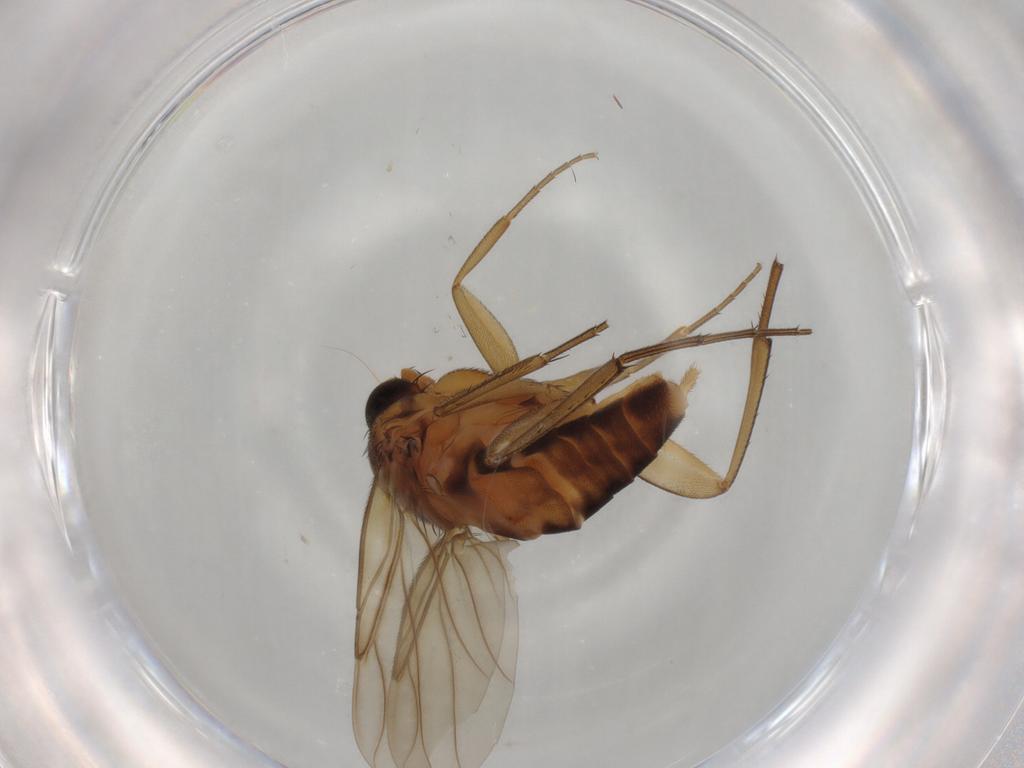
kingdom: Animalia
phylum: Arthropoda
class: Insecta
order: Diptera
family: Phoridae
